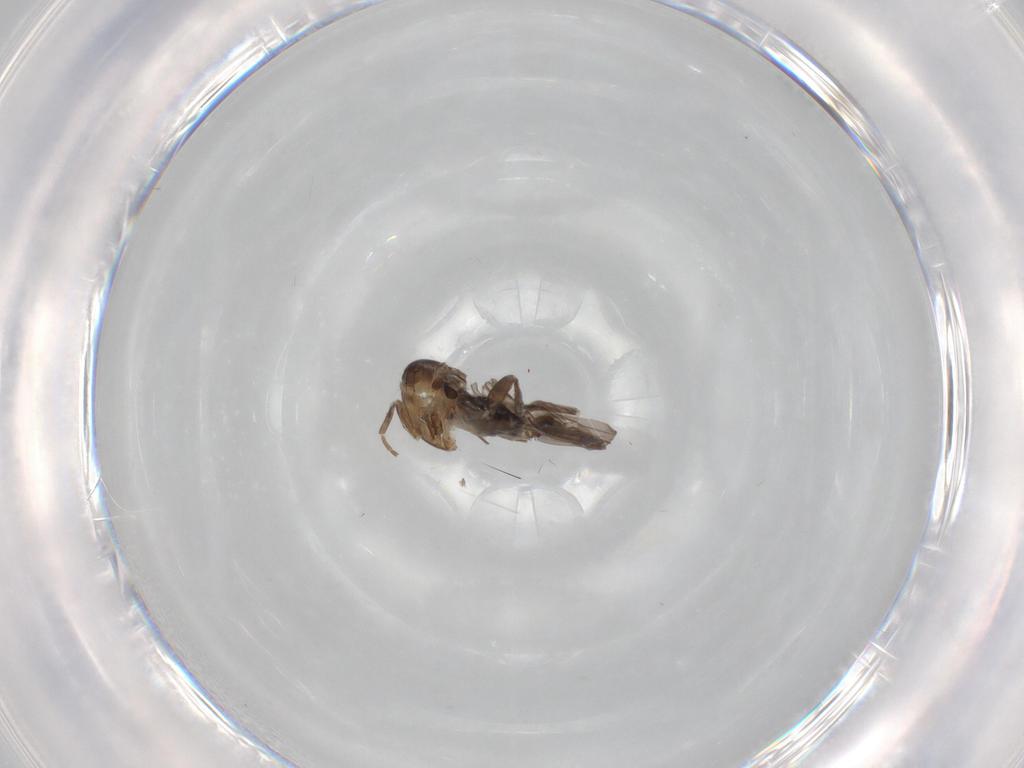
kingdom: Animalia
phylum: Arthropoda
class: Insecta
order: Diptera
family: Psychodidae
